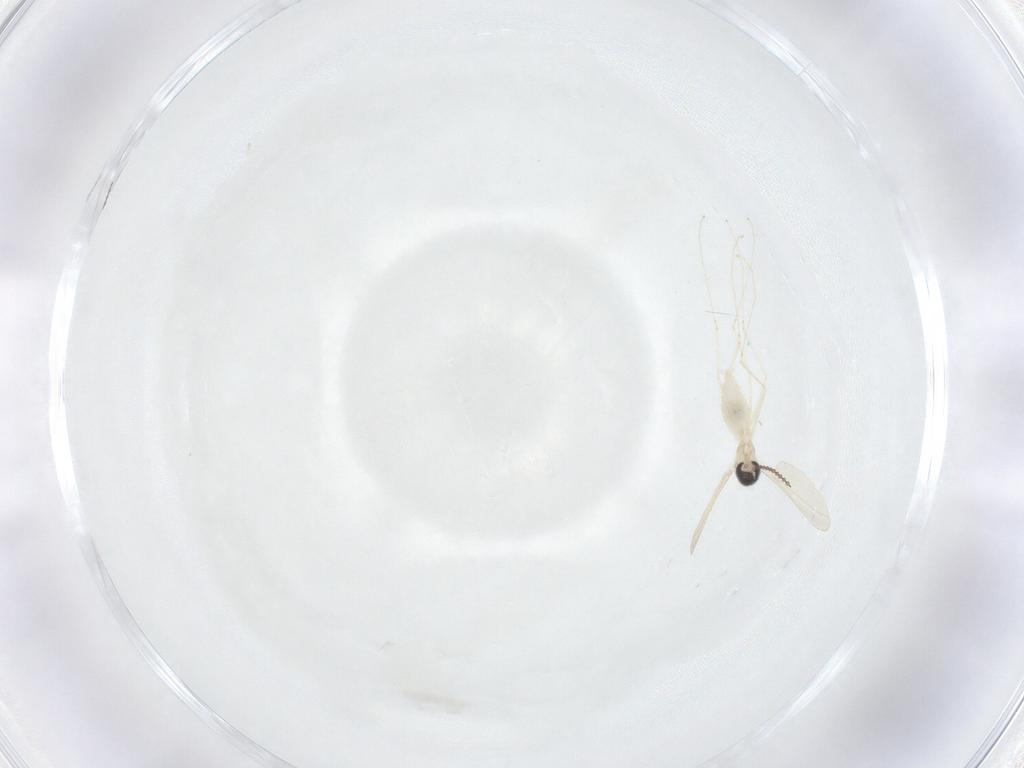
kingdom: Animalia
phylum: Arthropoda
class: Insecta
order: Diptera
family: Cecidomyiidae
